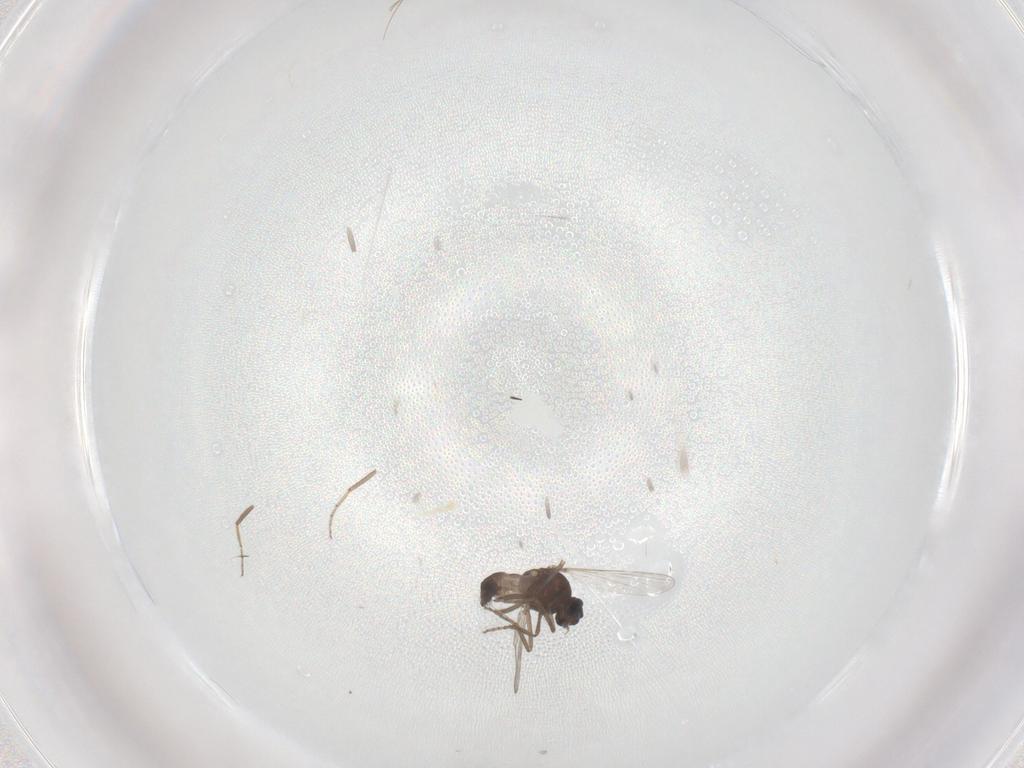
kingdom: Animalia
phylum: Arthropoda
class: Insecta
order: Diptera
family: Ceratopogonidae
